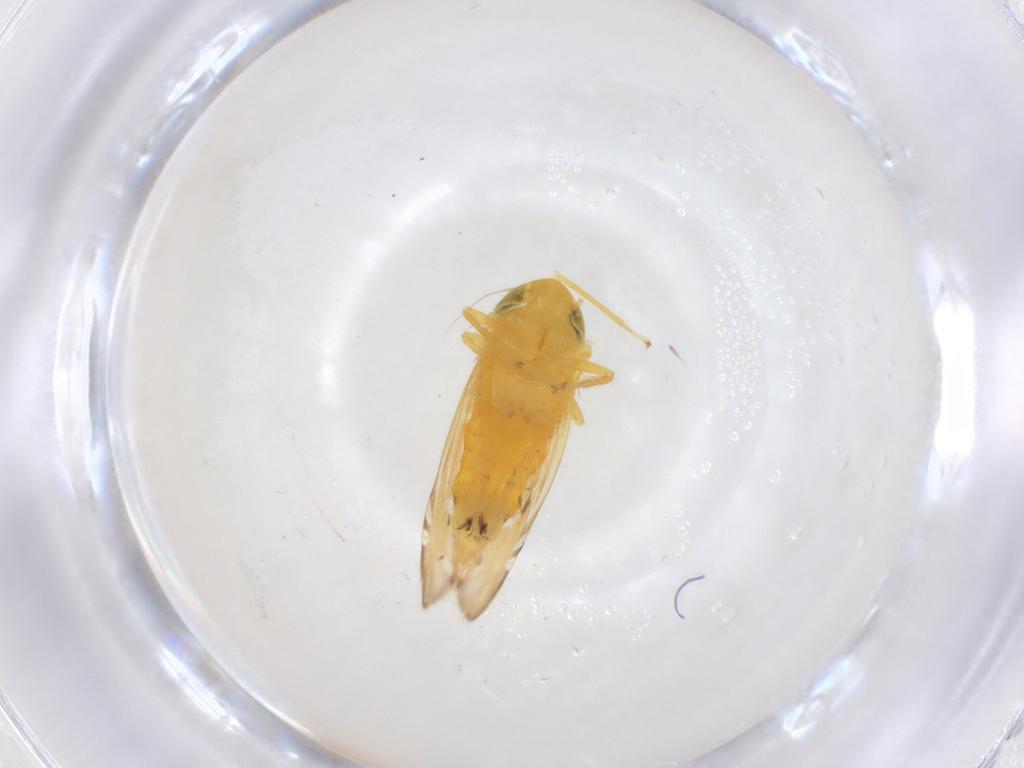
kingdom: Animalia
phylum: Arthropoda
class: Insecta
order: Hemiptera
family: Cicadellidae
